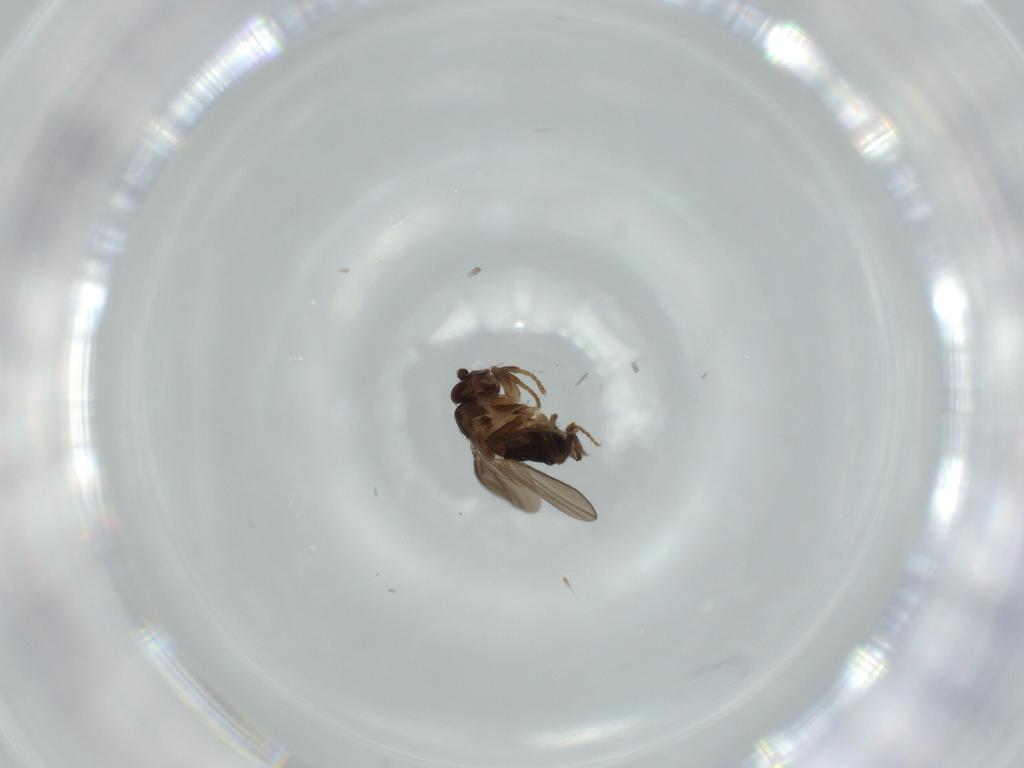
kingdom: Animalia
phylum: Arthropoda
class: Insecta
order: Diptera
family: Sphaeroceridae
